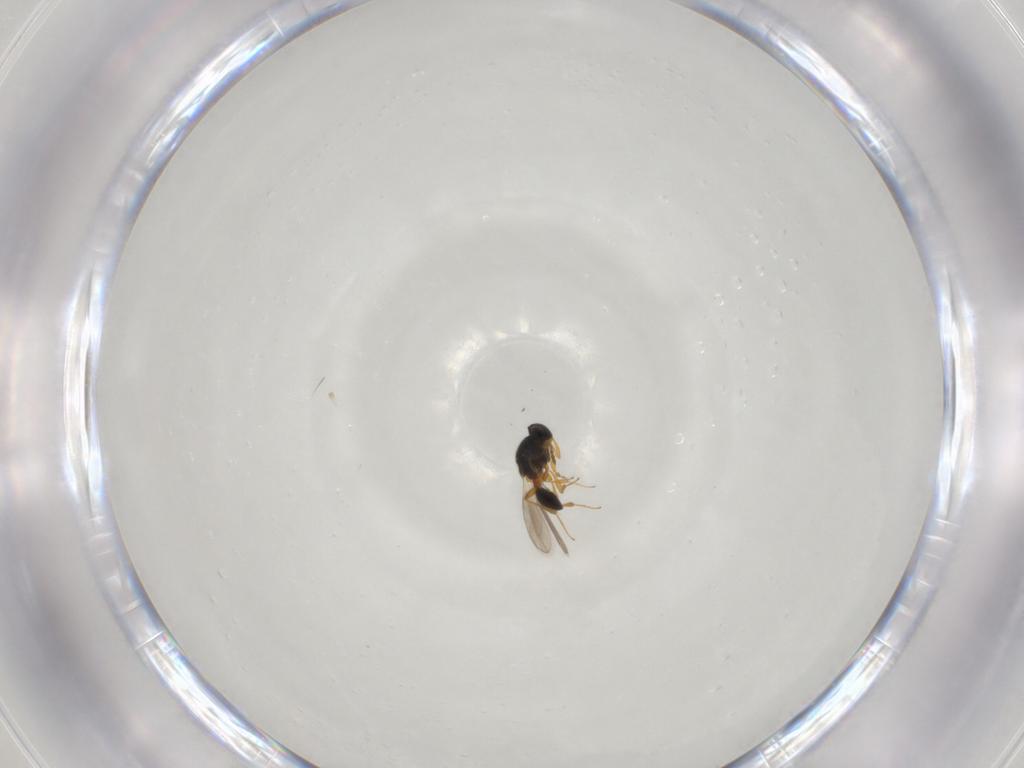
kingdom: Animalia
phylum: Arthropoda
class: Insecta
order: Hymenoptera
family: Platygastridae
